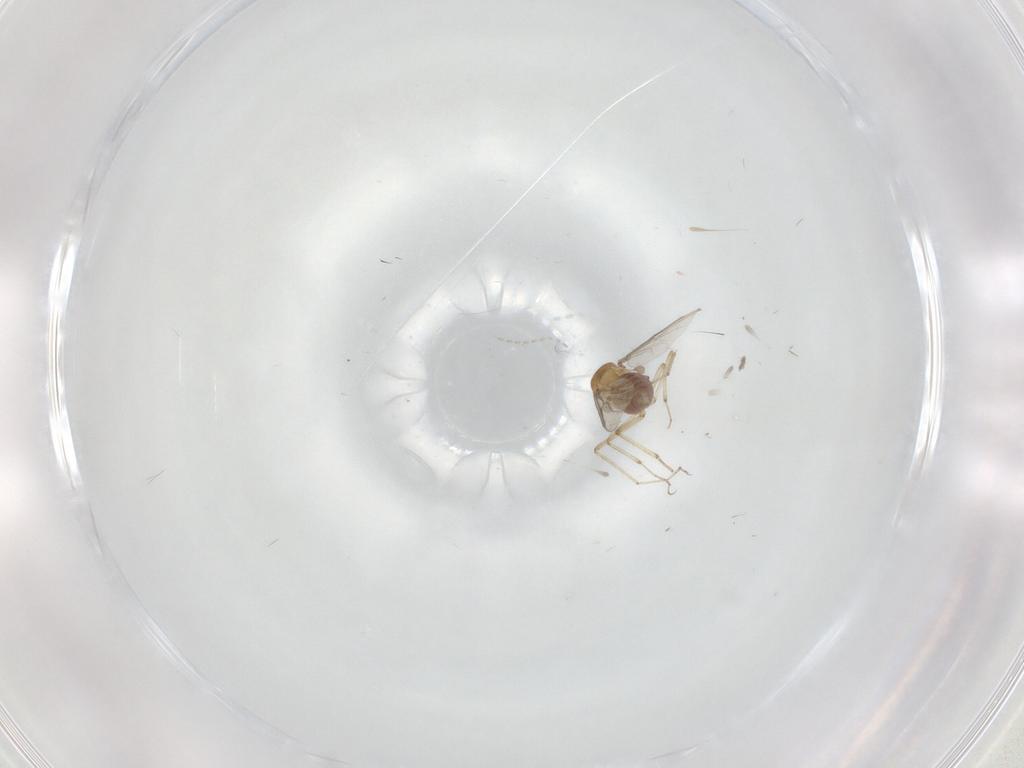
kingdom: Animalia
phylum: Arthropoda
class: Insecta
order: Diptera
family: Ceratopogonidae
